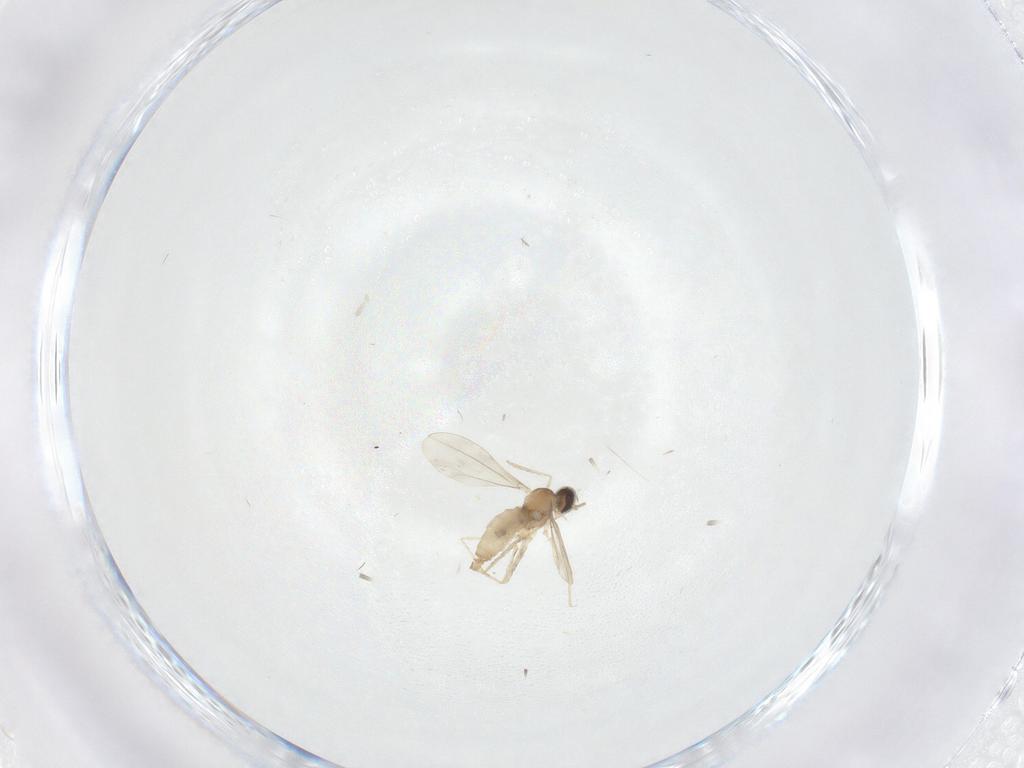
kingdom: Animalia
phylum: Arthropoda
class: Insecta
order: Diptera
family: Tabanidae
